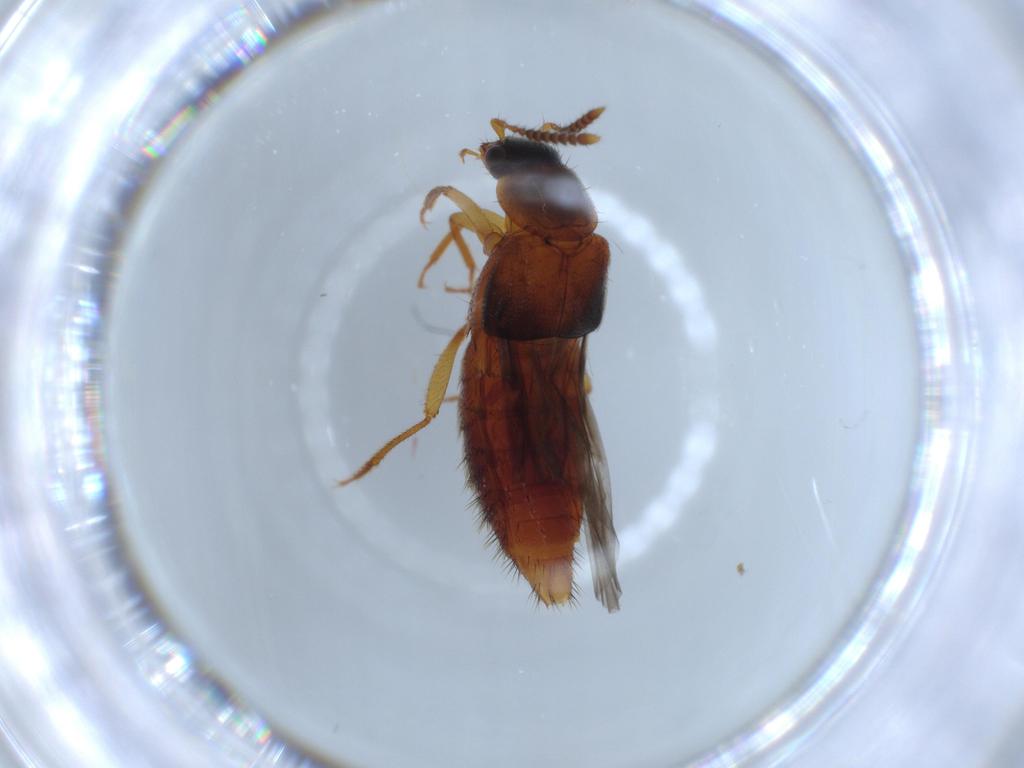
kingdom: Animalia
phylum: Arthropoda
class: Insecta
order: Coleoptera
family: Staphylinidae
